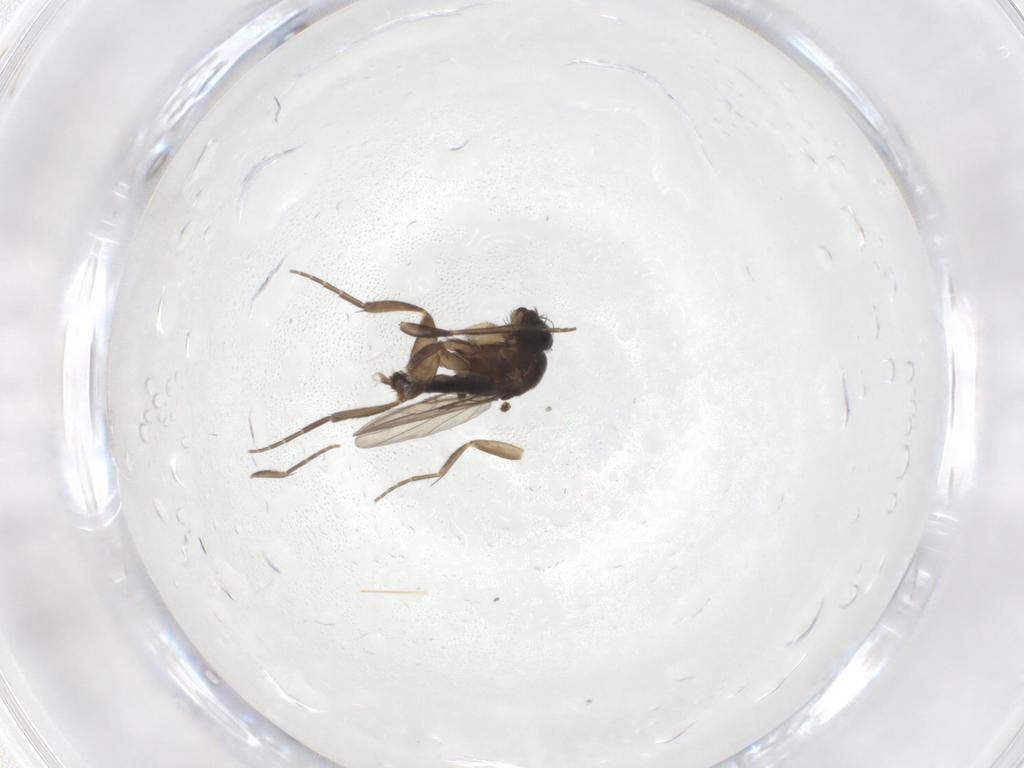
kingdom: Animalia
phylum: Arthropoda
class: Insecta
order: Diptera
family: Phoridae
